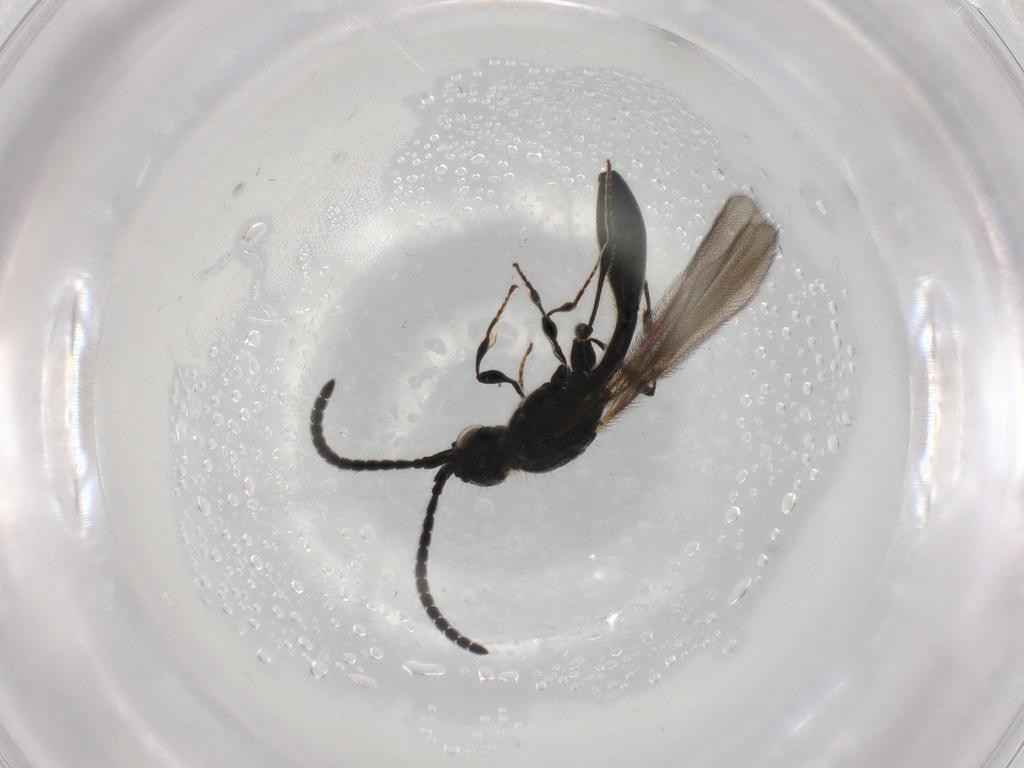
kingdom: Animalia
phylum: Arthropoda
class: Insecta
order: Hymenoptera
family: Diapriidae
